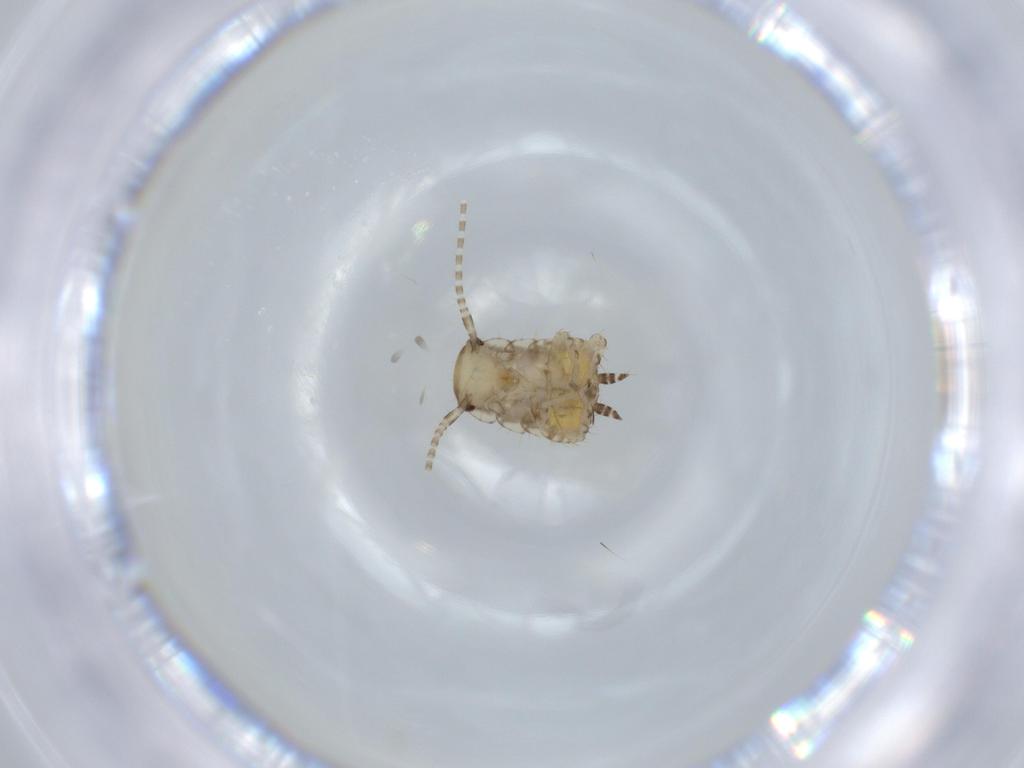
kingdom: Animalia
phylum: Arthropoda
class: Insecta
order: Blattodea
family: Ectobiidae
